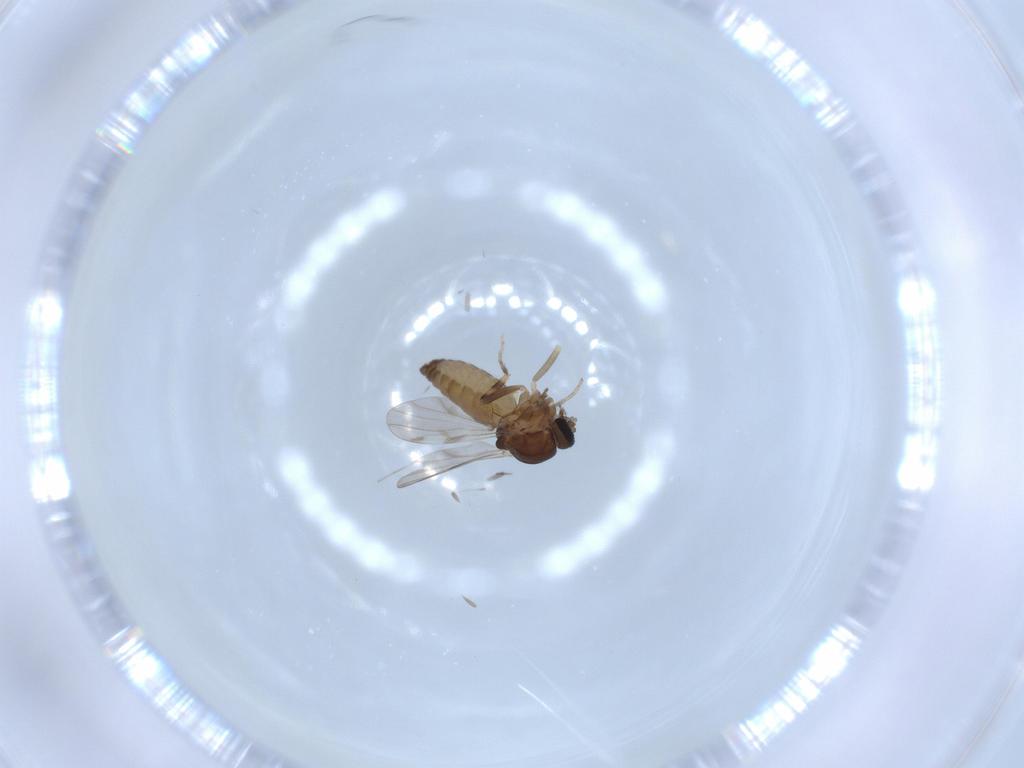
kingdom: Animalia
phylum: Arthropoda
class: Insecta
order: Diptera
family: Ceratopogonidae
